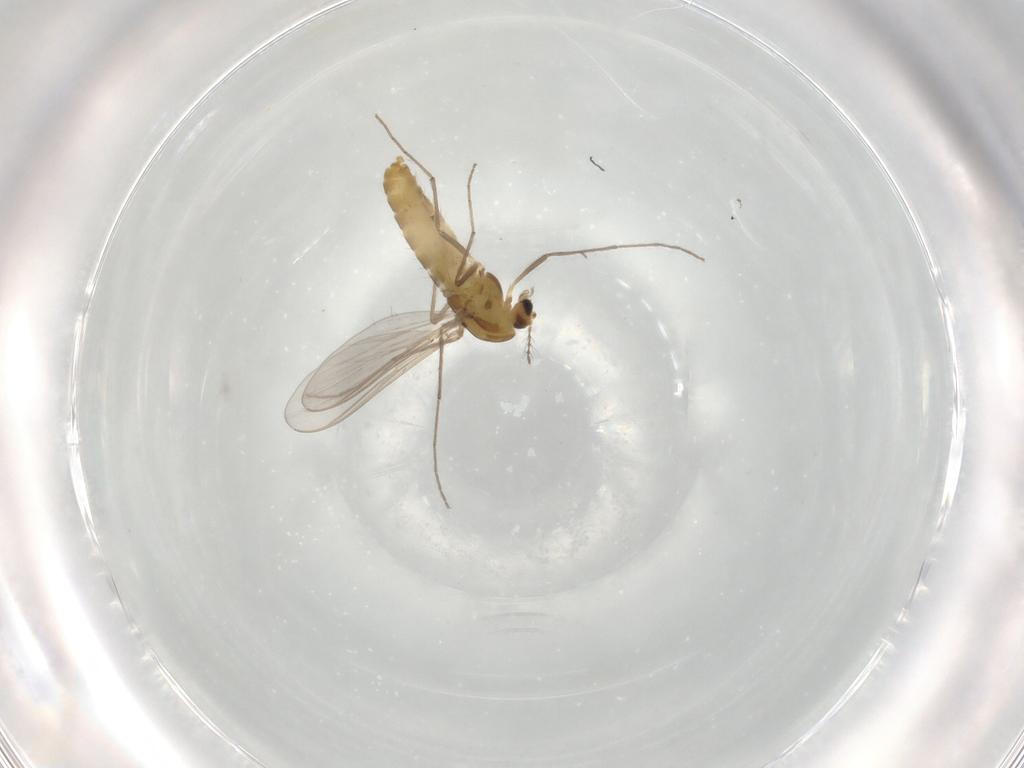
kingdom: Animalia
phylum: Arthropoda
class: Insecta
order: Diptera
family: Chironomidae
